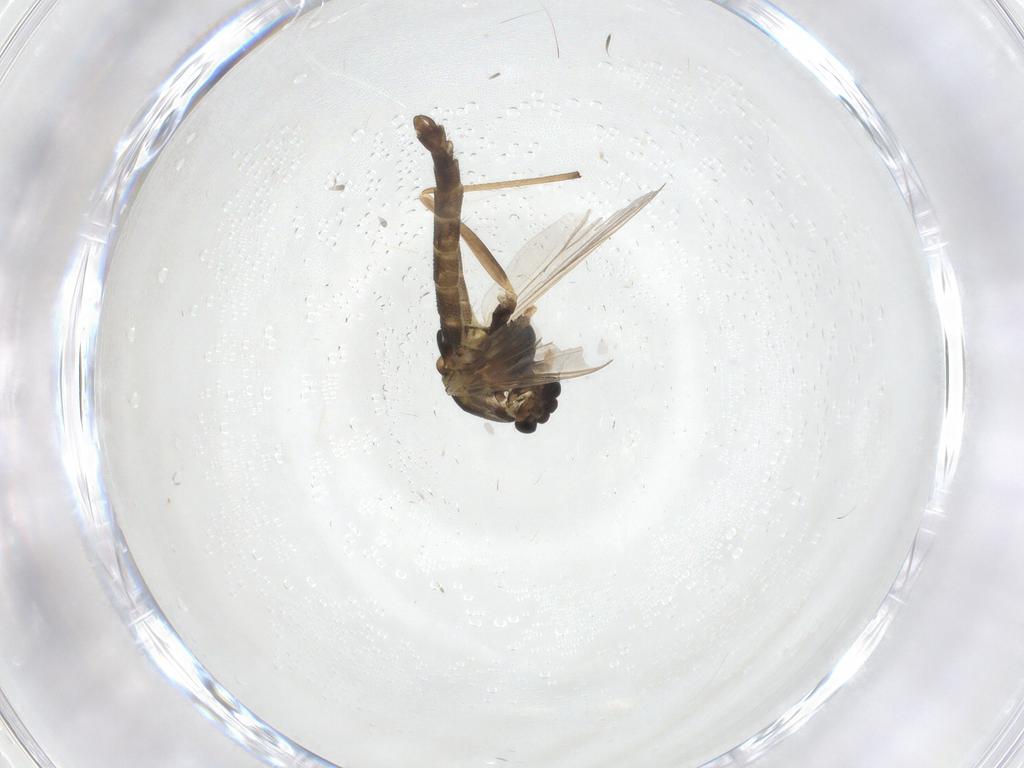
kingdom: Animalia
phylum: Arthropoda
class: Insecta
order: Diptera
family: Chironomidae
